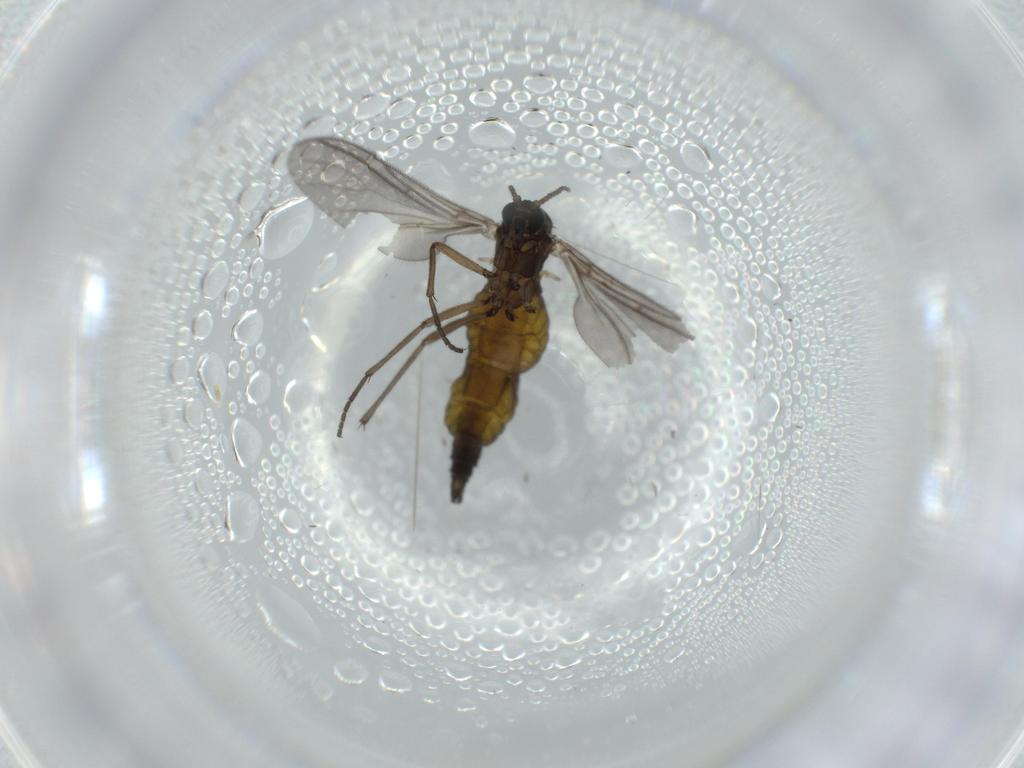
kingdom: Animalia
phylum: Arthropoda
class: Insecta
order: Diptera
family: Sciaridae
